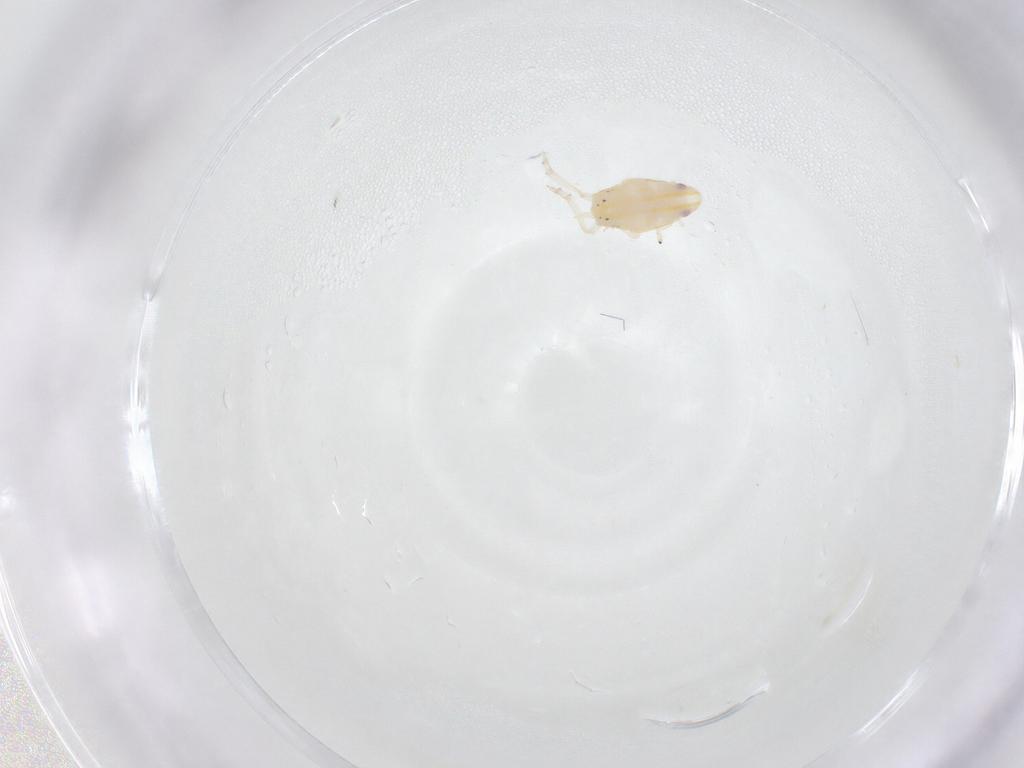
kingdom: Animalia
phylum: Arthropoda
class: Insecta
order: Hemiptera
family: Flatidae
